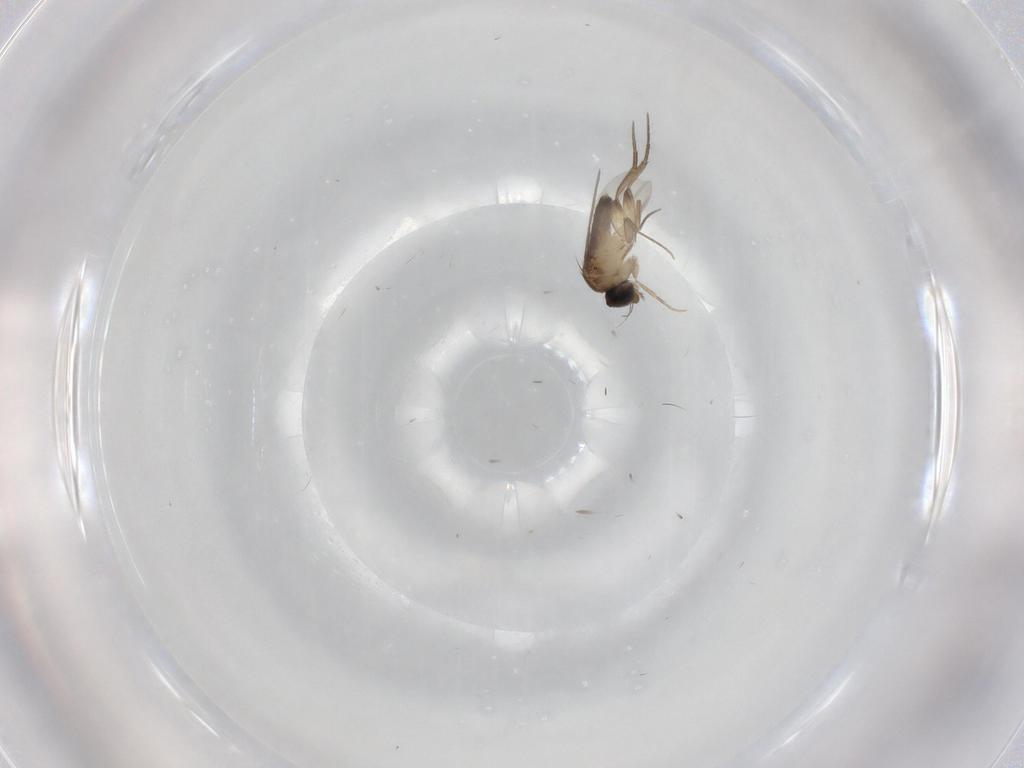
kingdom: Animalia
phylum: Arthropoda
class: Insecta
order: Diptera
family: Phoridae
